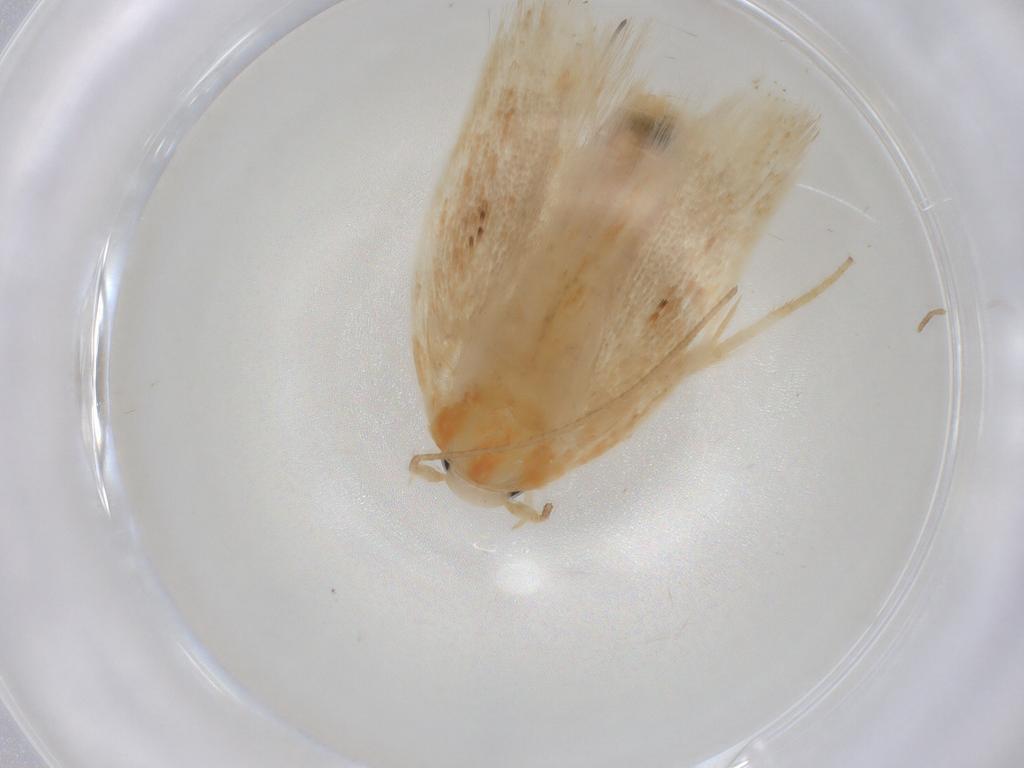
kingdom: Animalia
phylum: Arthropoda
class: Insecta
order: Lepidoptera
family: Geometridae
